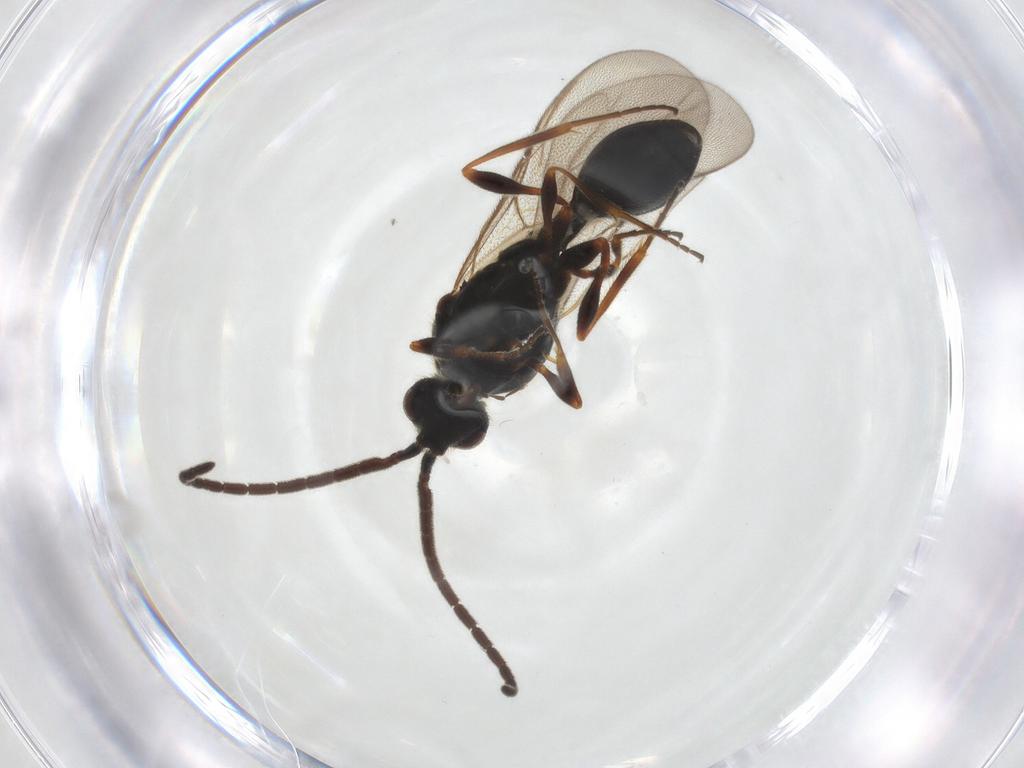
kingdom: Animalia
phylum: Arthropoda
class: Insecta
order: Hymenoptera
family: Diapriidae
